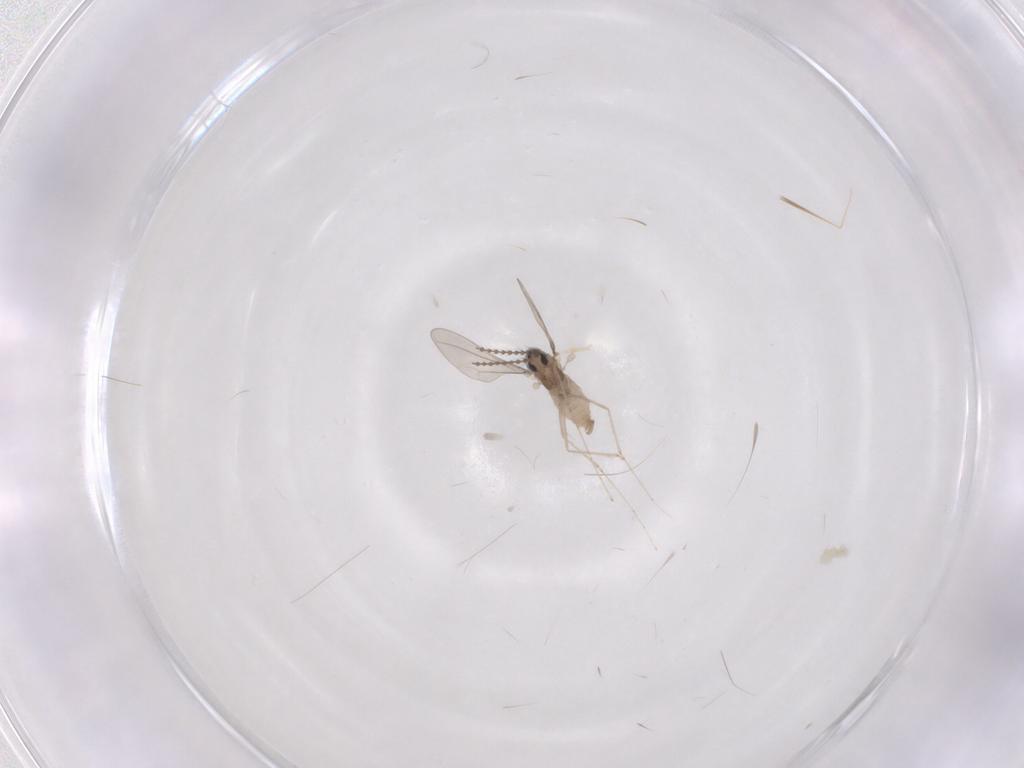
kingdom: Animalia
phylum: Arthropoda
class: Insecta
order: Diptera
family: Cecidomyiidae
